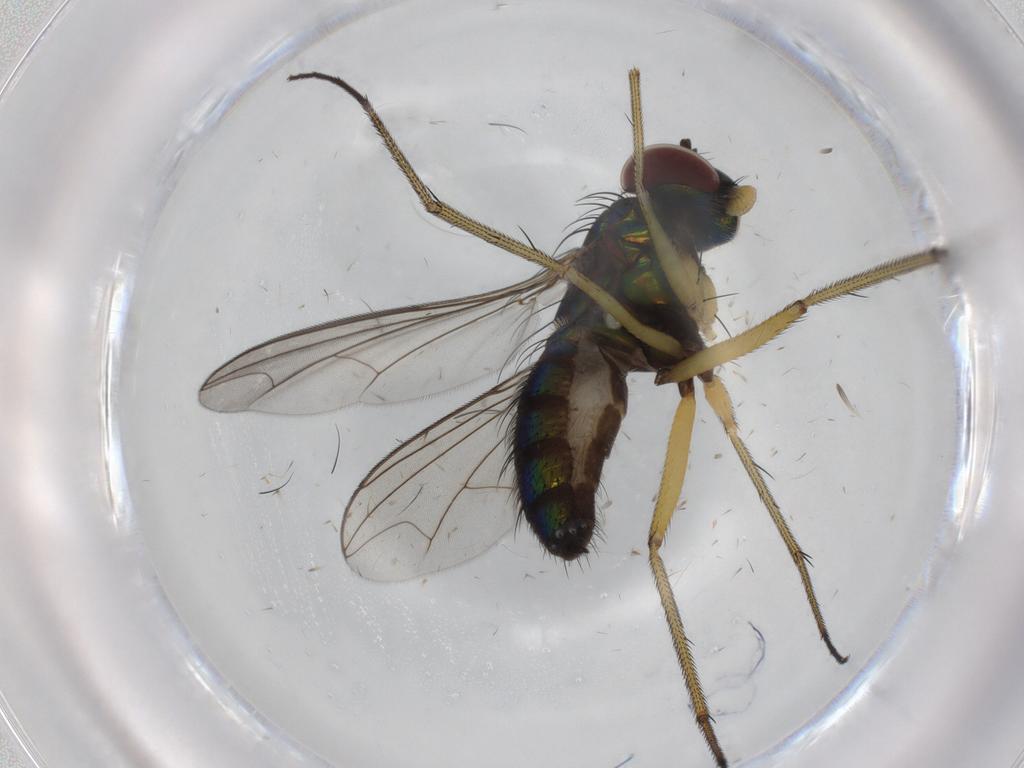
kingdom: Animalia
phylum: Arthropoda
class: Insecta
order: Diptera
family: Dolichopodidae
